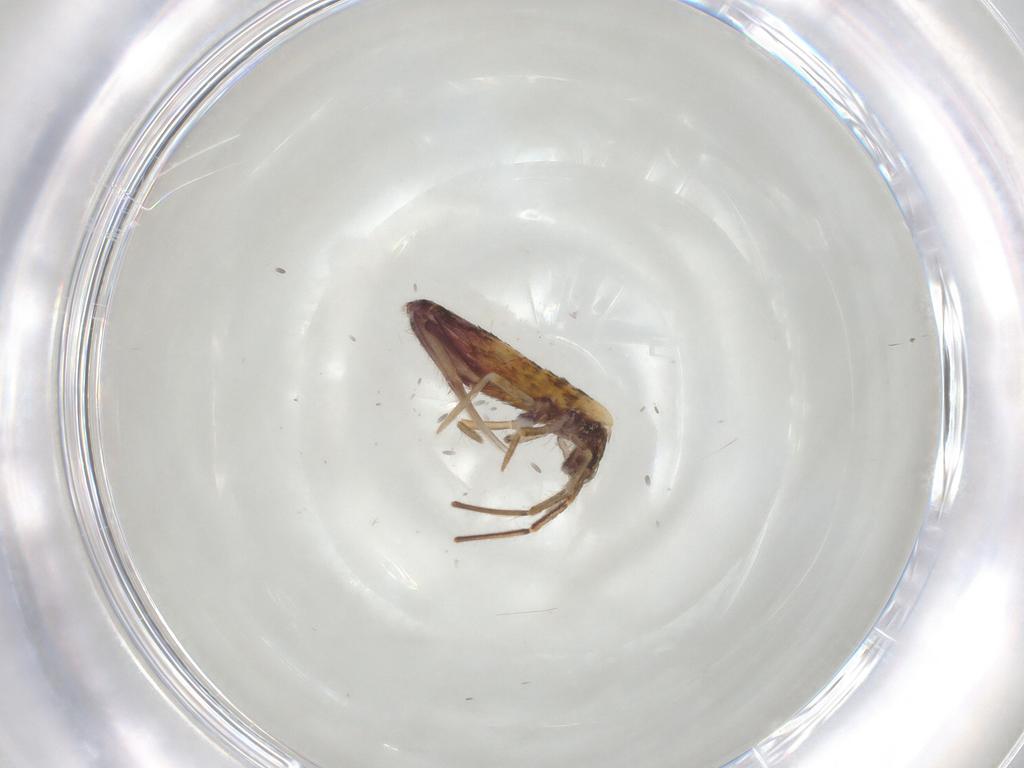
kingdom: Animalia
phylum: Arthropoda
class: Collembola
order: Entomobryomorpha
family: Entomobryidae
